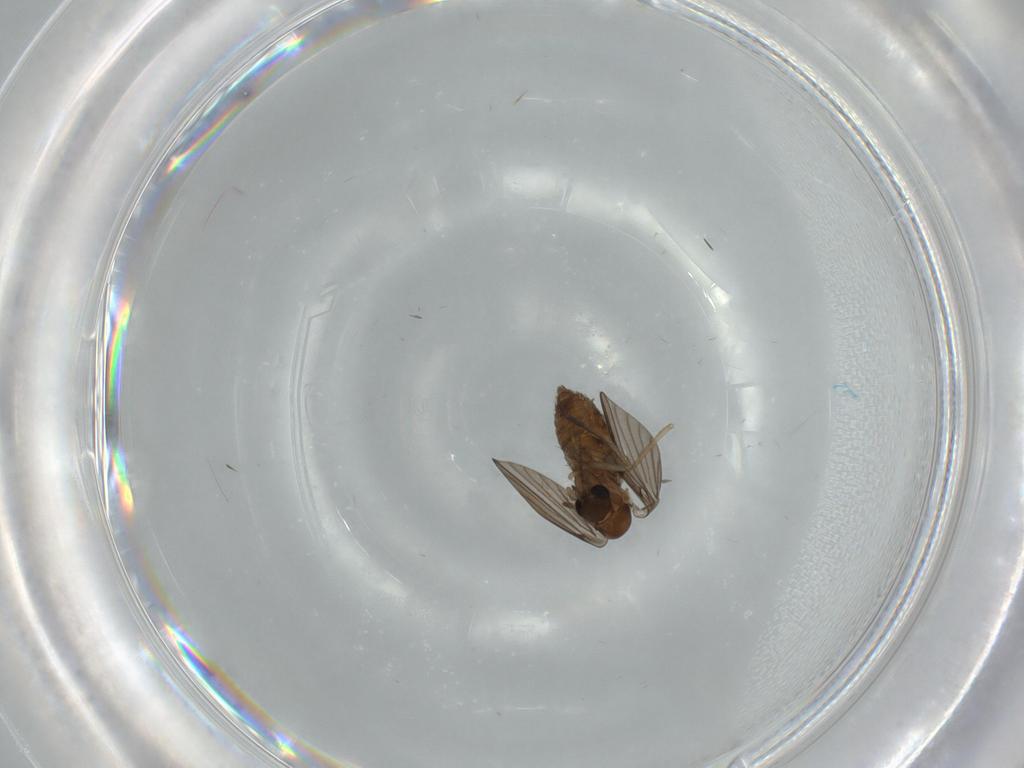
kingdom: Animalia
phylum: Arthropoda
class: Insecta
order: Diptera
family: Psychodidae
